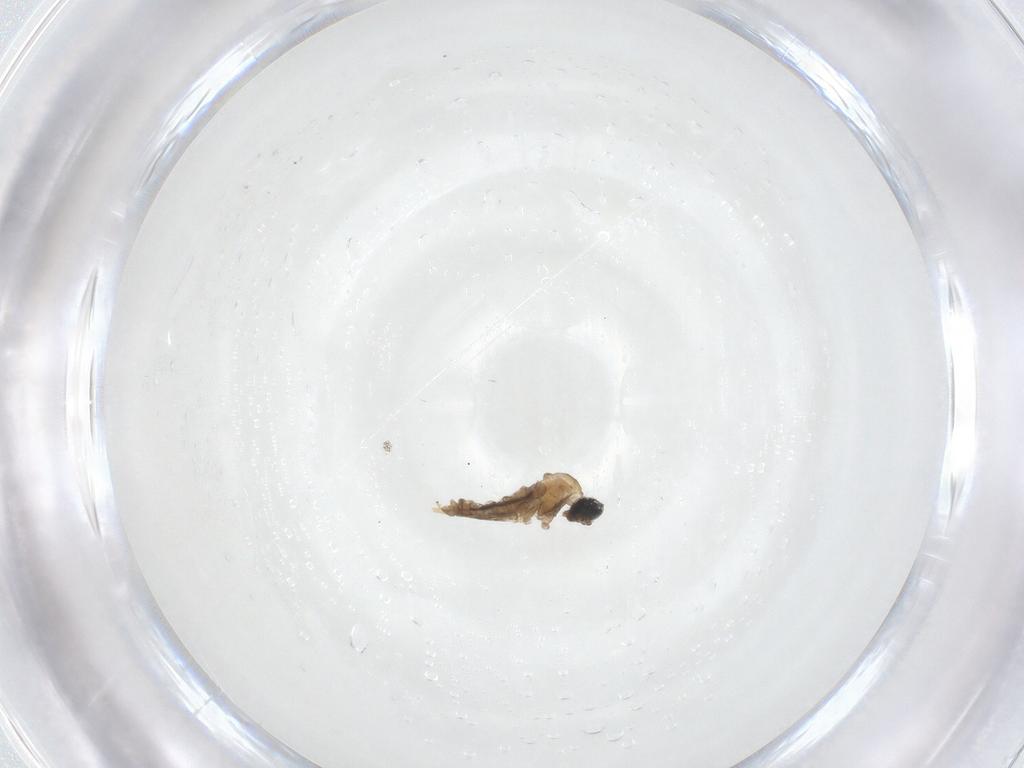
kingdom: Animalia
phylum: Arthropoda
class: Insecta
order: Diptera
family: Cecidomyiidae
